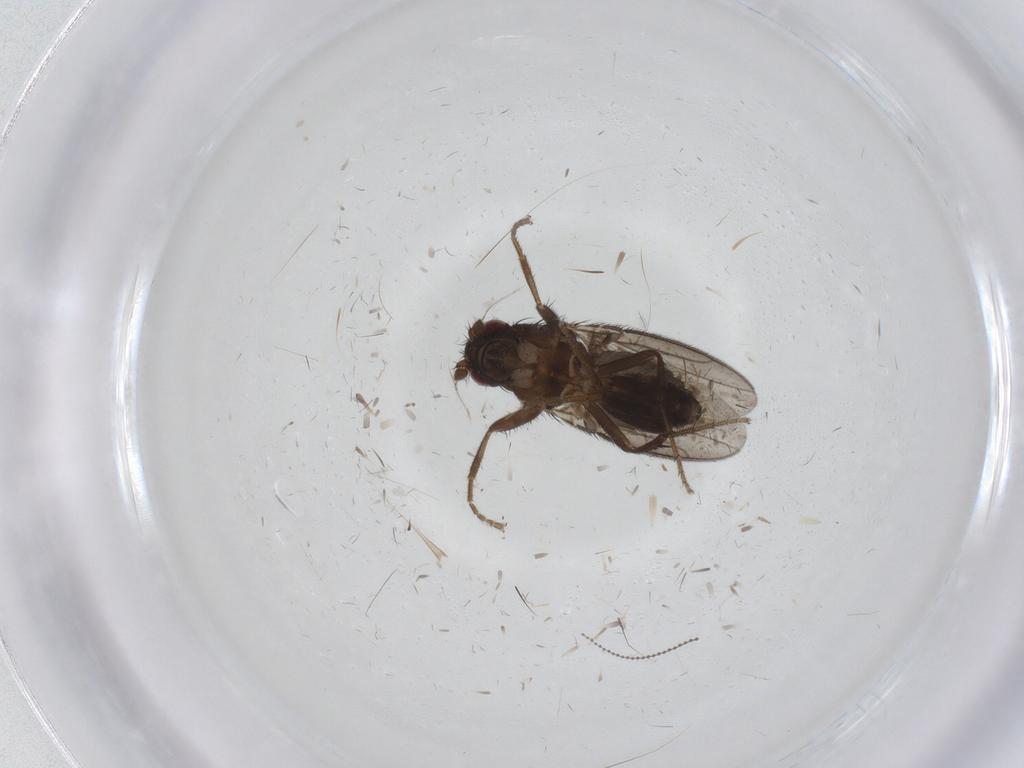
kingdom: Animalia
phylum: Arthropoda
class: Insecta
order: Diptera
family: Sphaeroceridae
